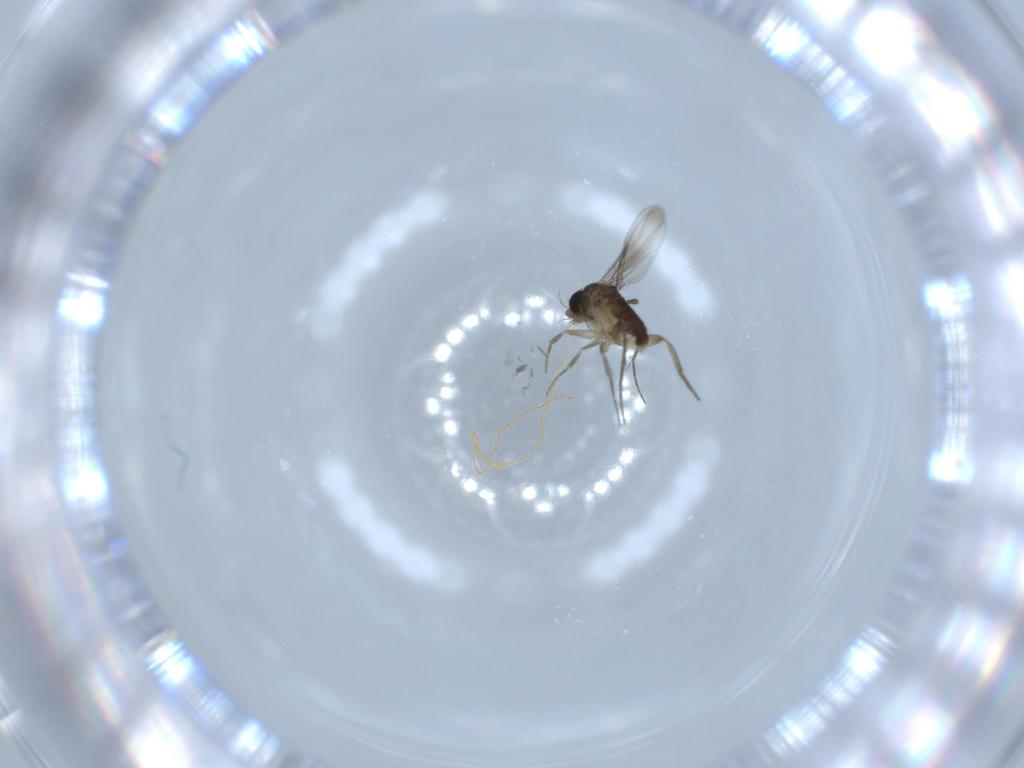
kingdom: Animalia
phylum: Arthropoda
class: Insecta
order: Diptera
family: Phoridae
